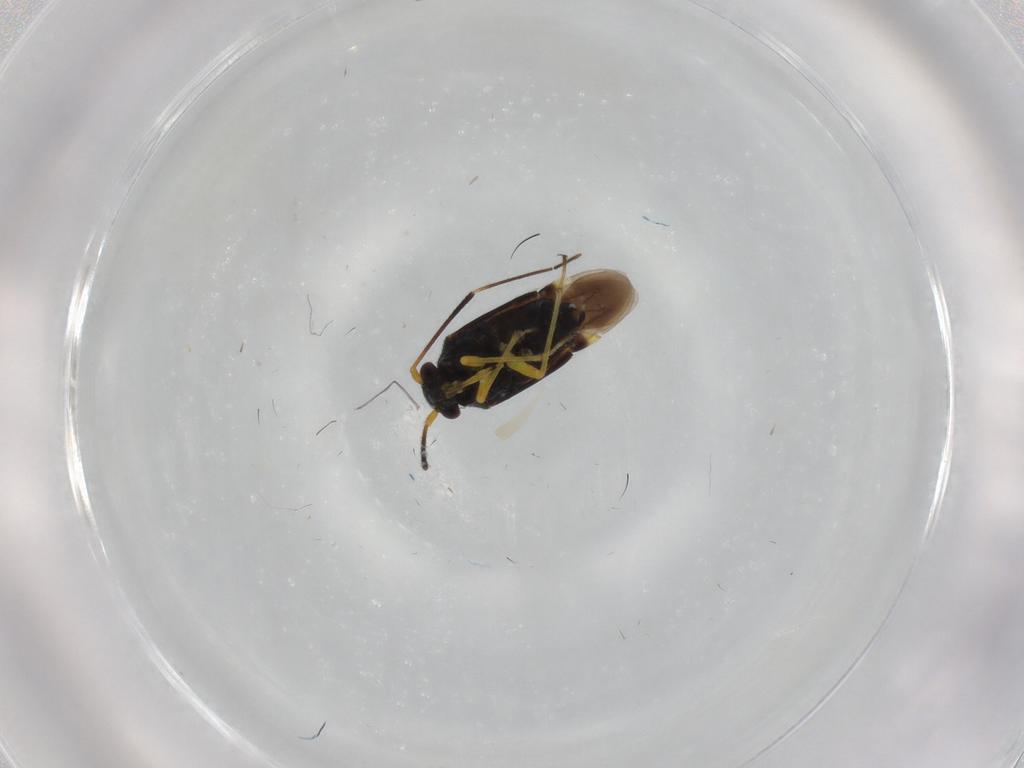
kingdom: Animalia
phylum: Arthropoda
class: Insecta
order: Hemiptera
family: Miridae
